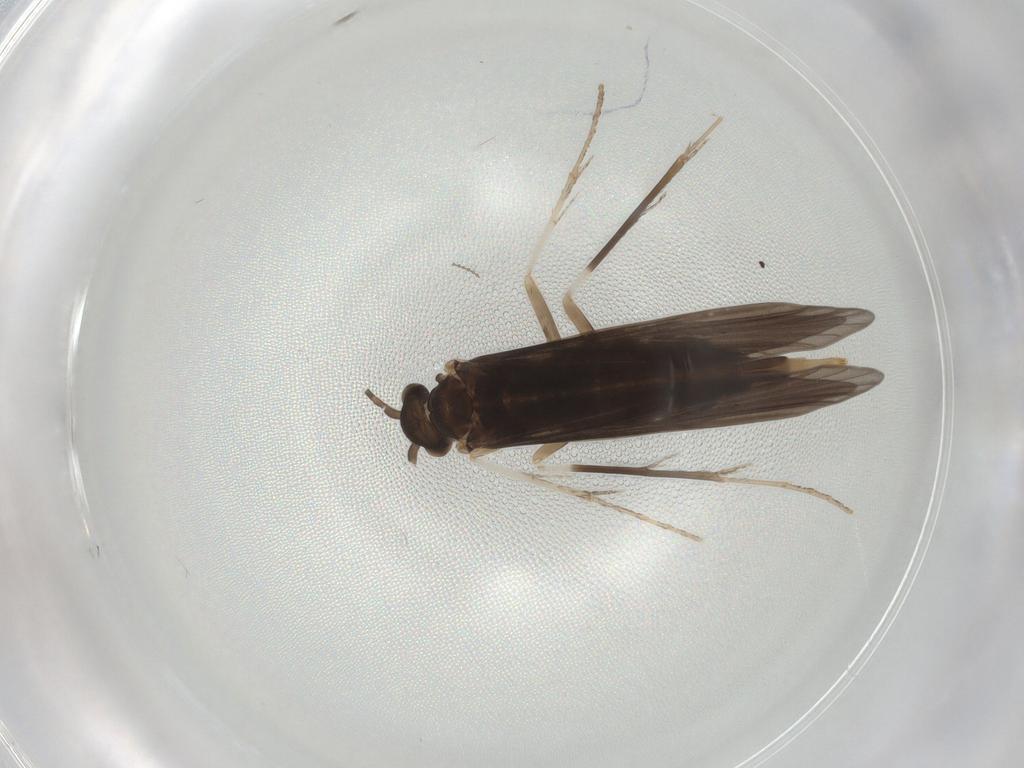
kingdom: Animalia
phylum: Arthropoda
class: Insecta
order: Trichoptera
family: Xiphocentronidae
